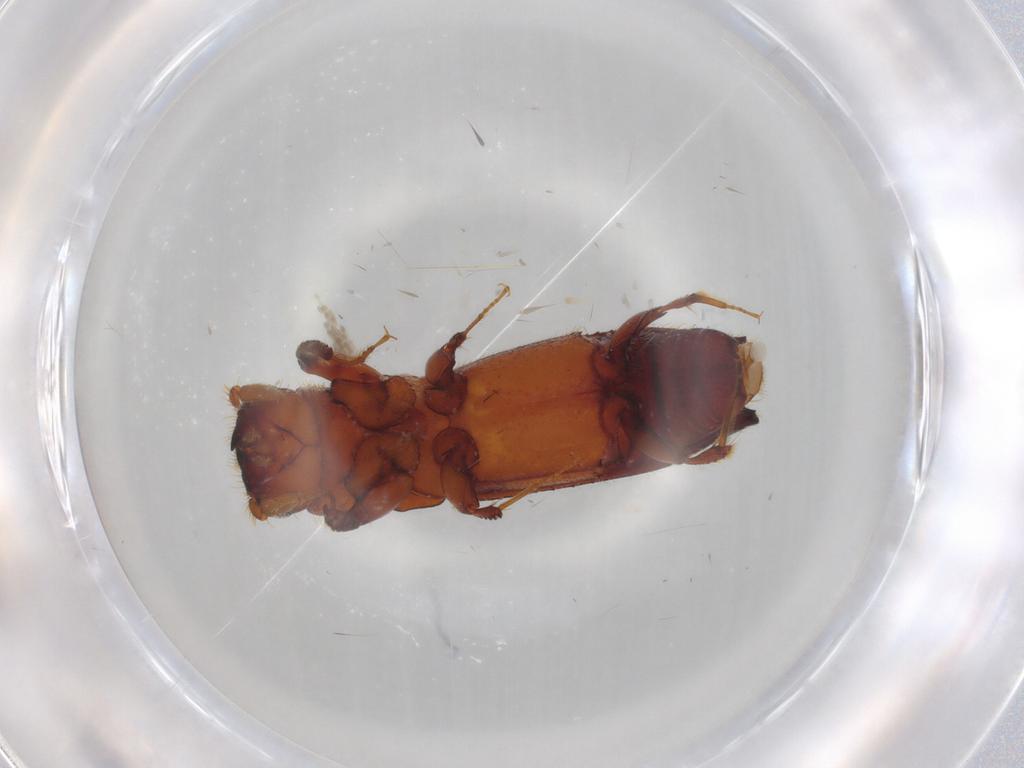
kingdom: Animalia
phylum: Arthropoda
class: Insecta
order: Coleoptera
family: Curculionidae
